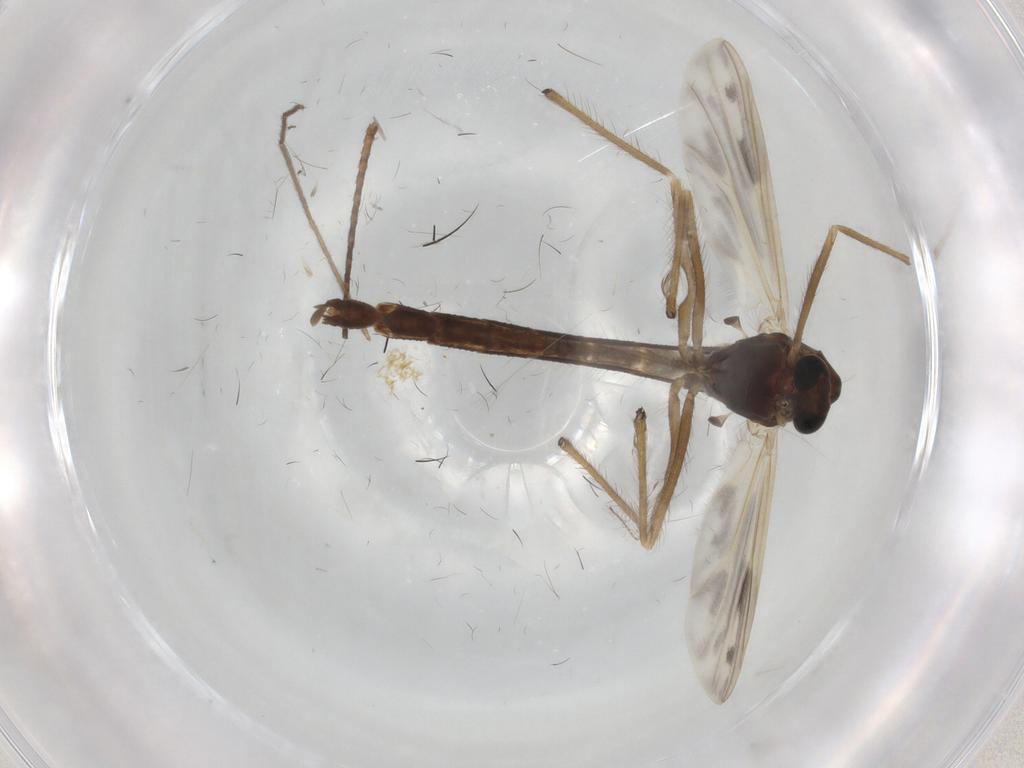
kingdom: Animalia
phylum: Arthropoda
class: Insecta
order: Diptera
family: Chironomidae
